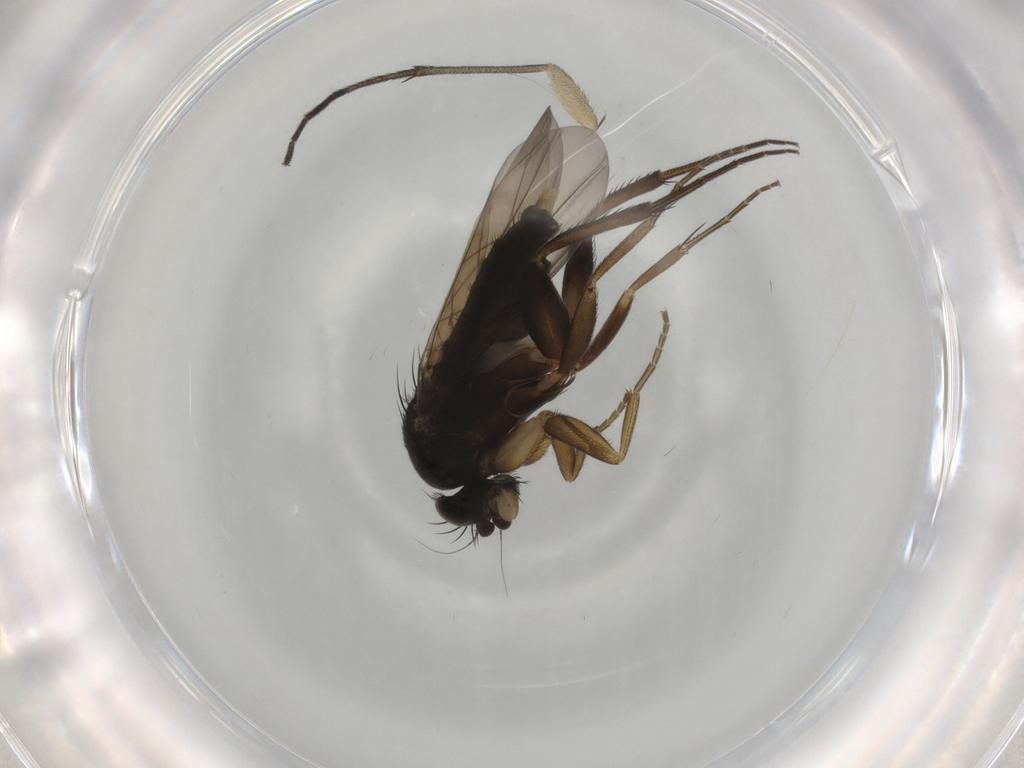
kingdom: Animalia
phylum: Arthropoda
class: Insecta
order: Diptera
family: Phoridae
